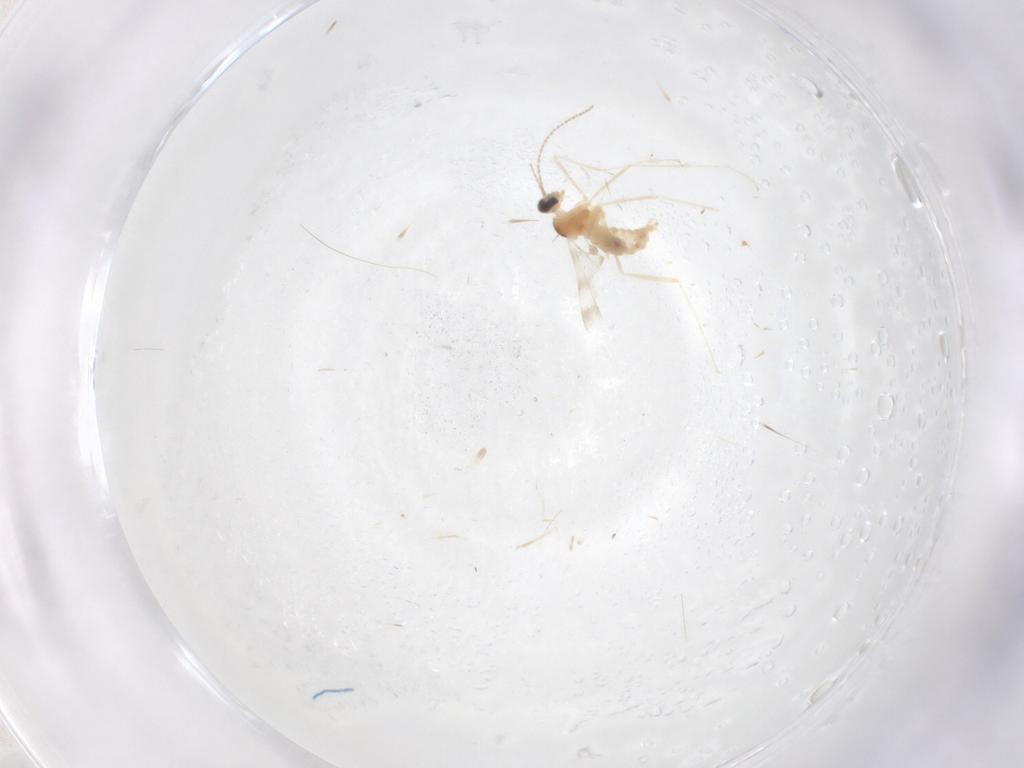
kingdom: Animalia
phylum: Arthropoda
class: Insecta
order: Diptera
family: Cecidomyiidae
